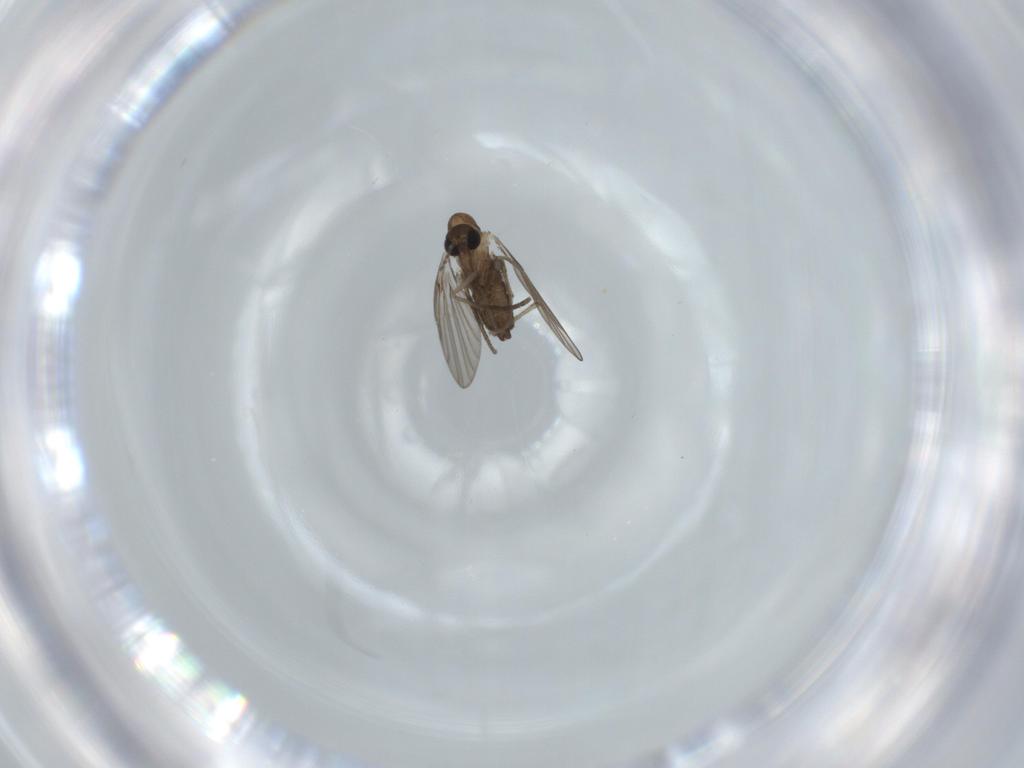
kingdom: Animalia
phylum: Arthropoda
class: Insecta
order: Diptera
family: Psychodidae
